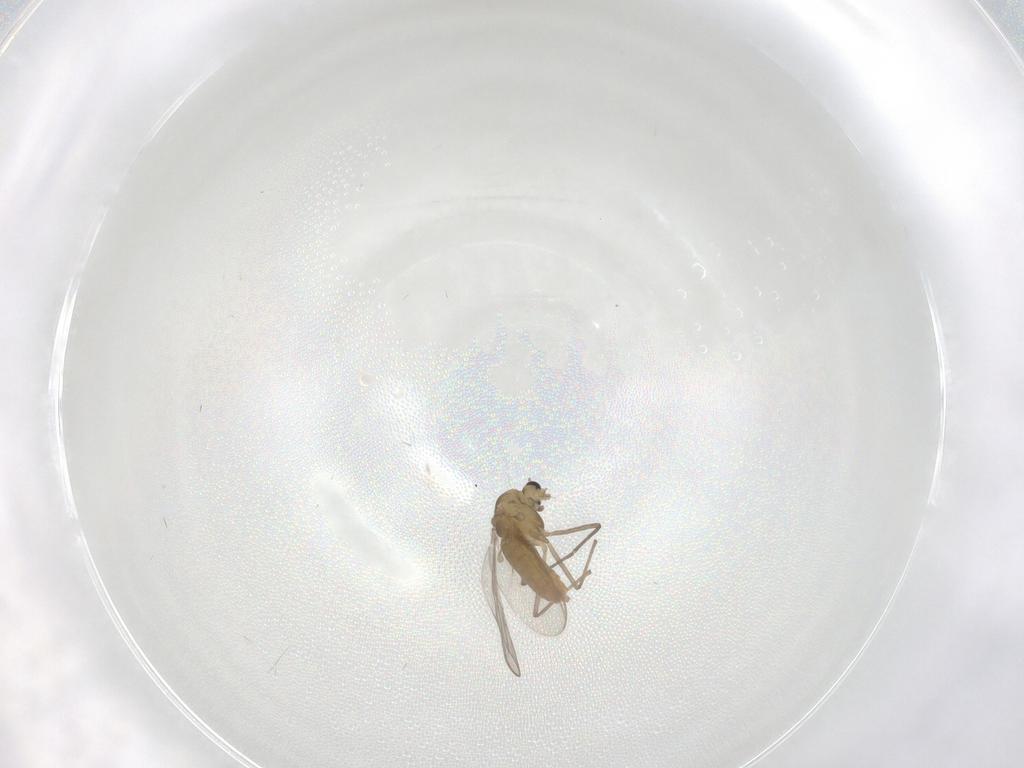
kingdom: Animalia
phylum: Arthropoda
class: Insecta
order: Diptera
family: Chironomidae
